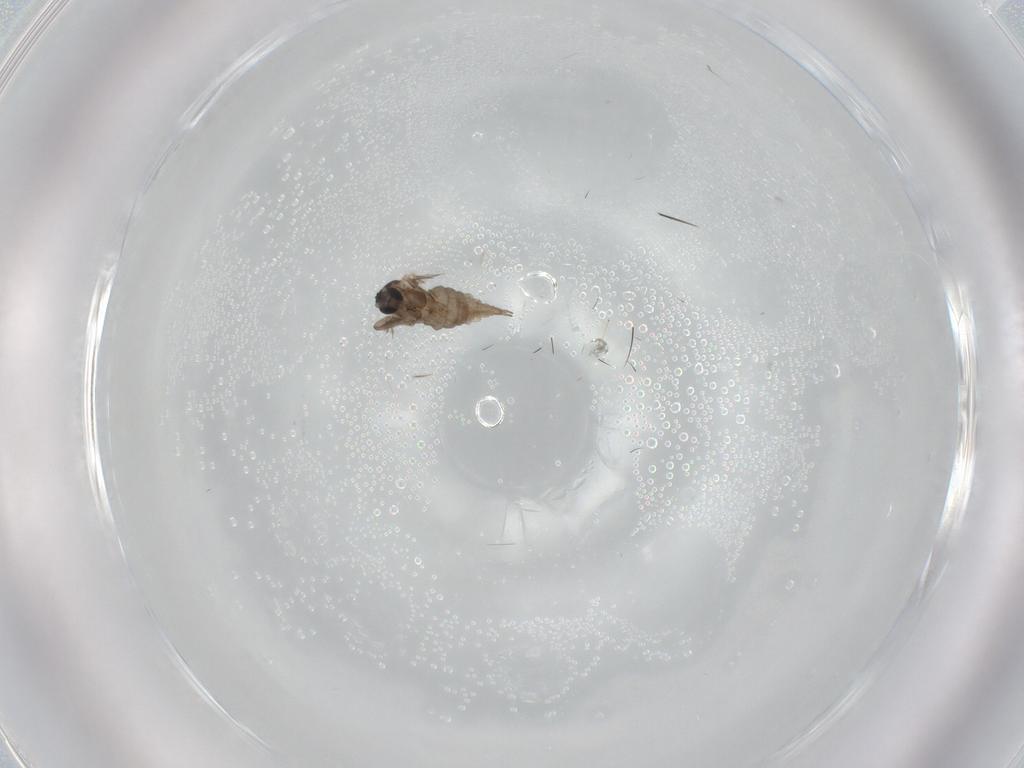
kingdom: Animalia
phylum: Arthropoda
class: Insecta
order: Diptera
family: Cecidomyiidae
